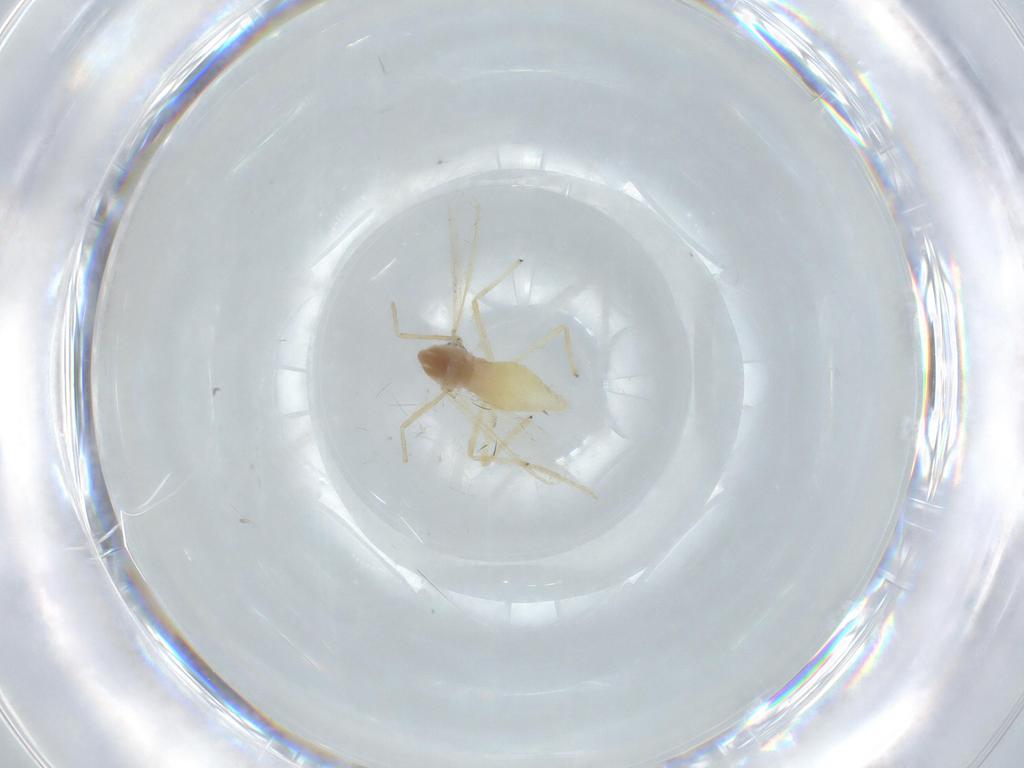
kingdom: Animalia
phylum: Arthropoda
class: Insecta
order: Diptera
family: Chironomidae
